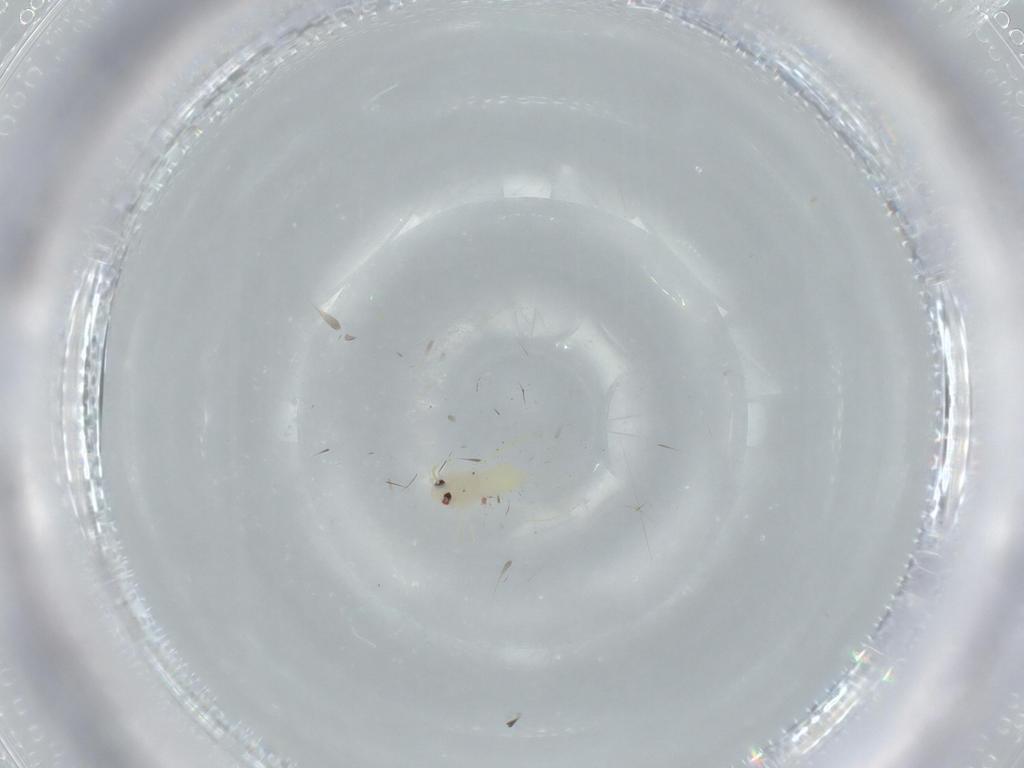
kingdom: Animalia
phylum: Arthropoda
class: Insecta
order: Hemiptera
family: Aleyrodidae
